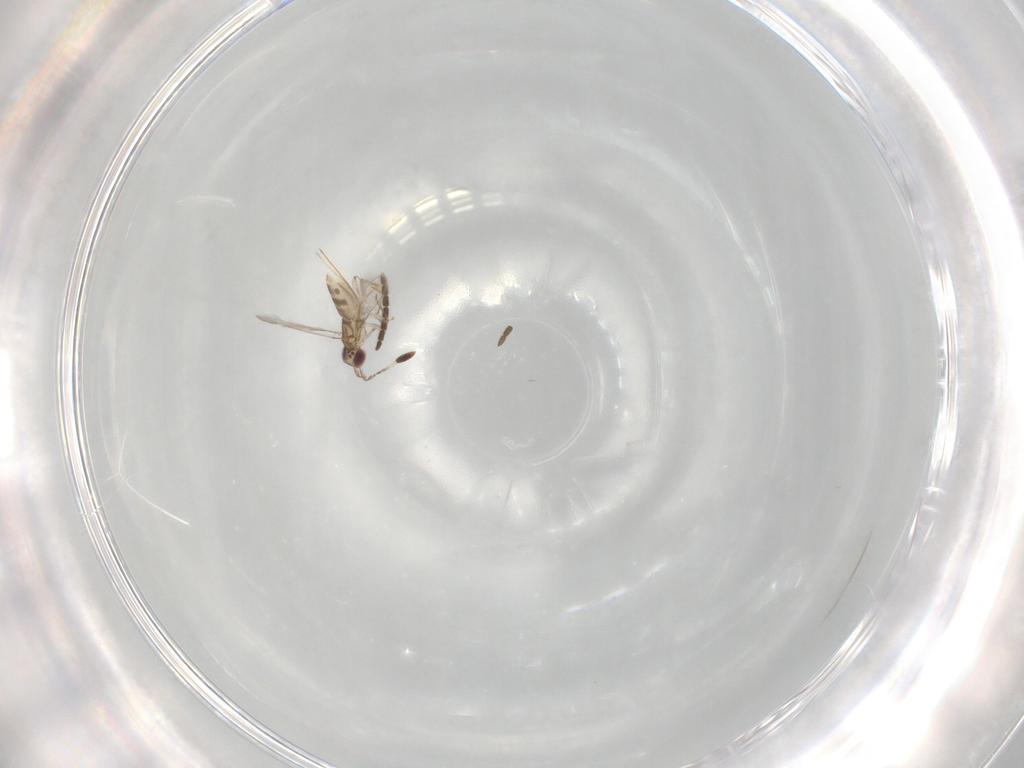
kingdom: Animalia
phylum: Arthropoda
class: Insecta
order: Hymenoptera
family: Mymaridae
